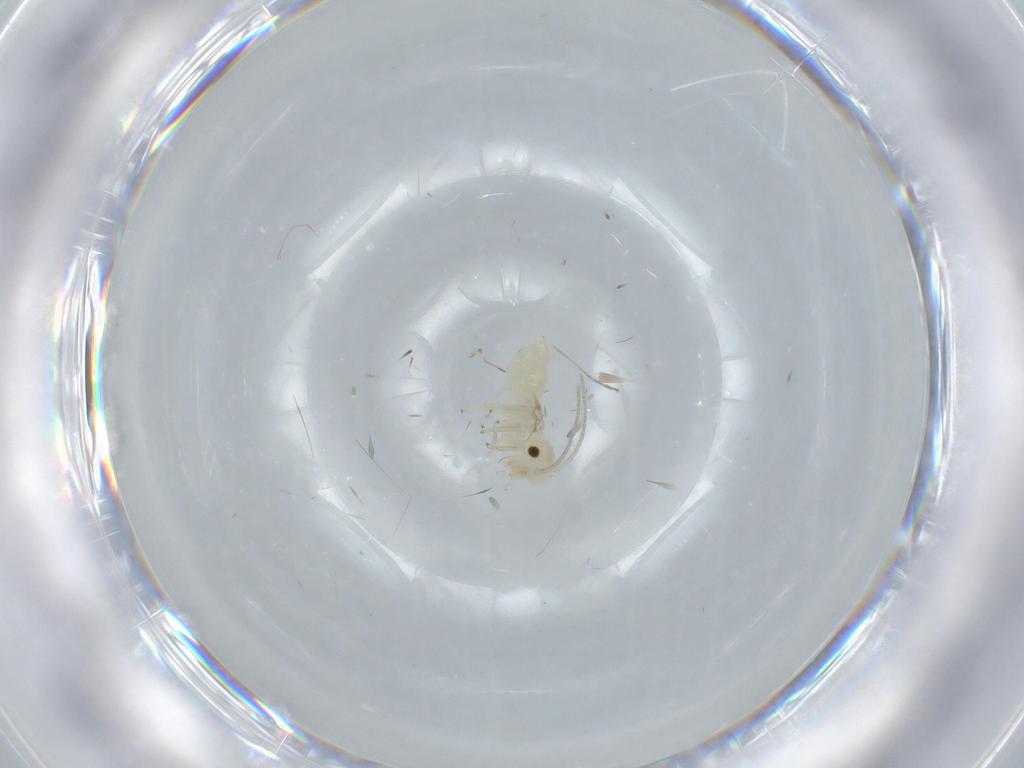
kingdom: Animalia
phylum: Arthropoda
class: Insecta
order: Psocodea
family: Caeciliusidae
